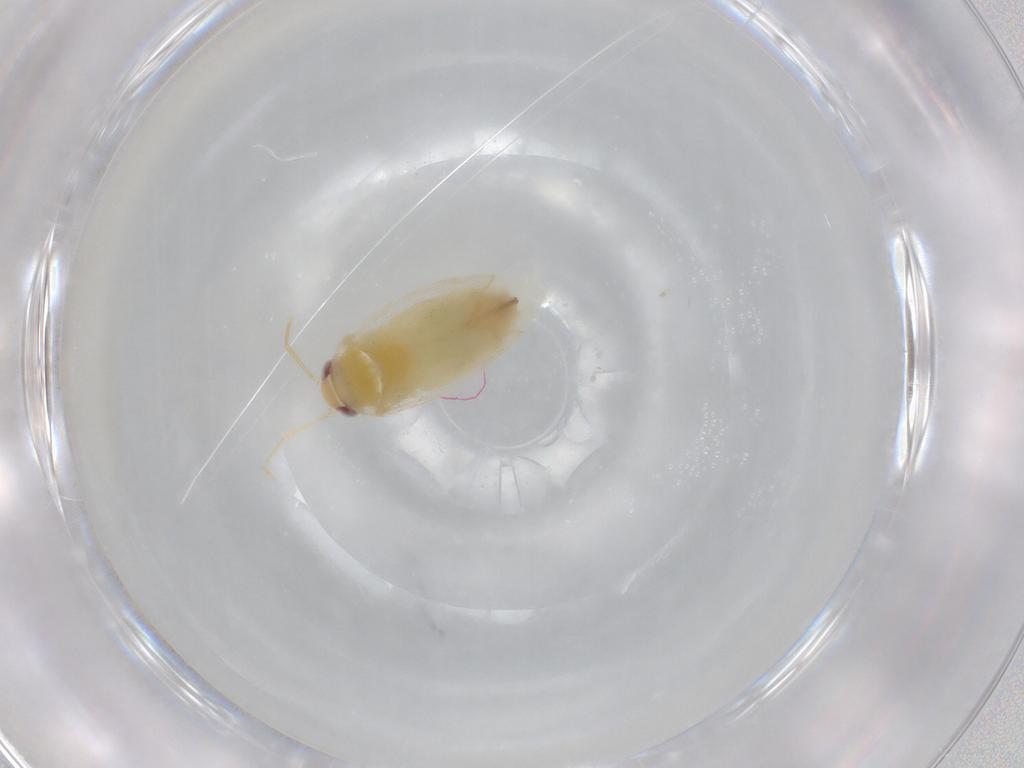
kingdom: Animalia
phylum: Arthropoda
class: Insecta
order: Hemiptera
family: Miridae
